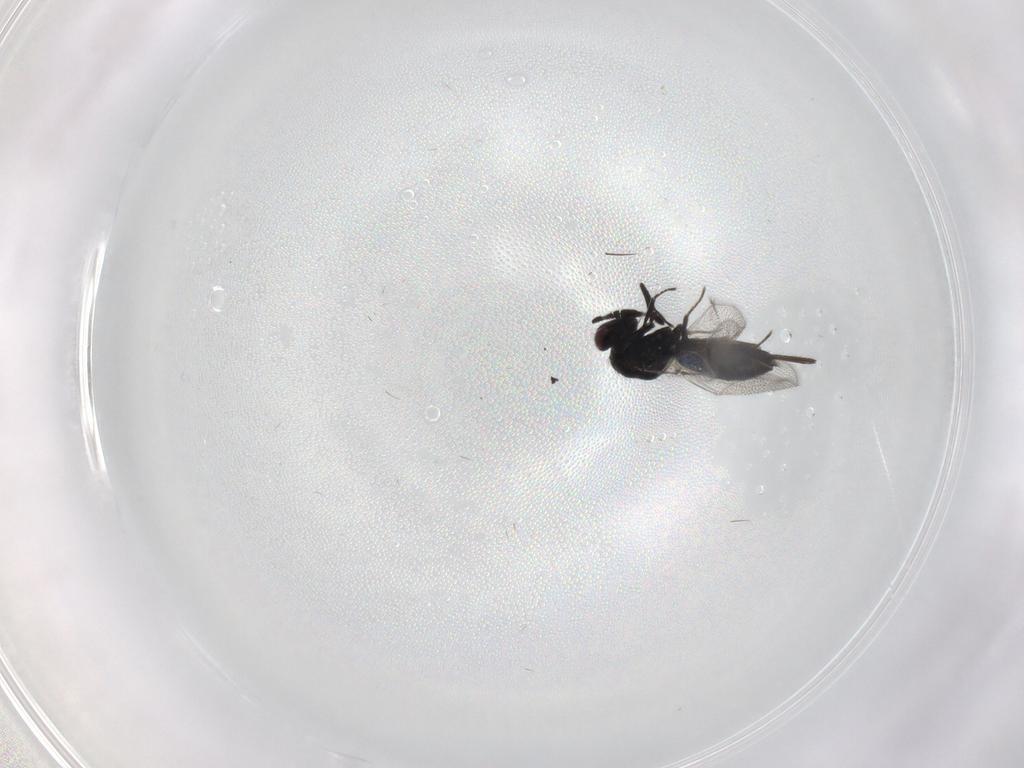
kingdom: Animalia
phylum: Arthropoda
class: Insecta
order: Hymenoptera
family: Pirenidae
